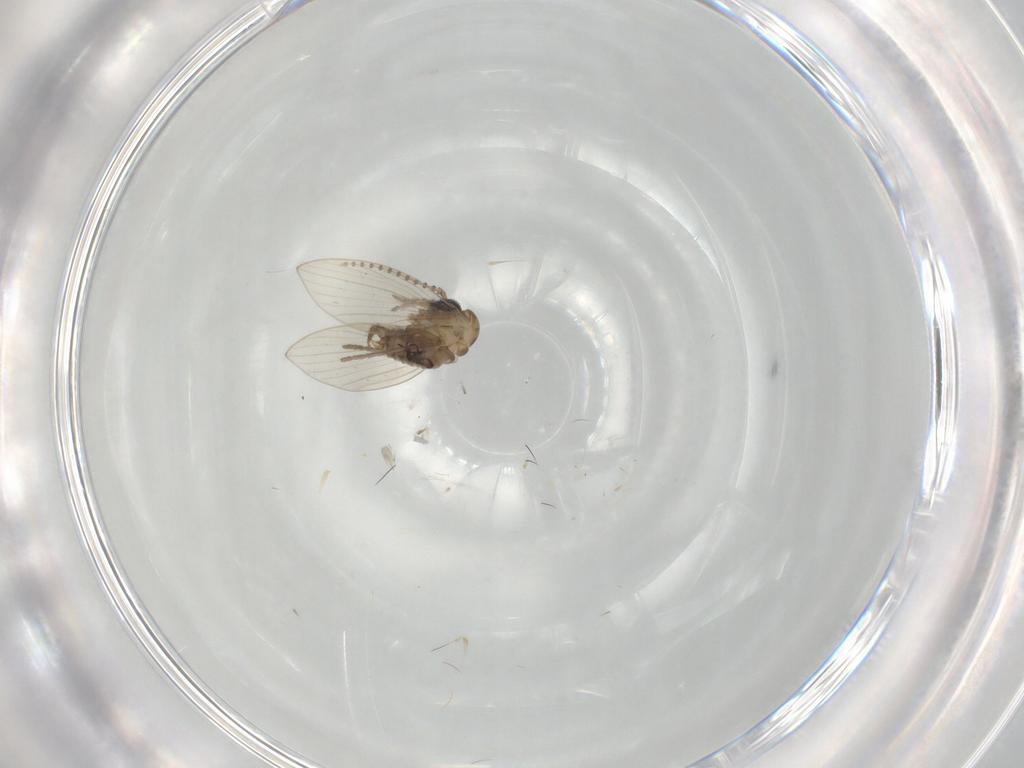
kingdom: Animalia
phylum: Arthropoda
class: Insecta
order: Diptera
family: Psychodidae
